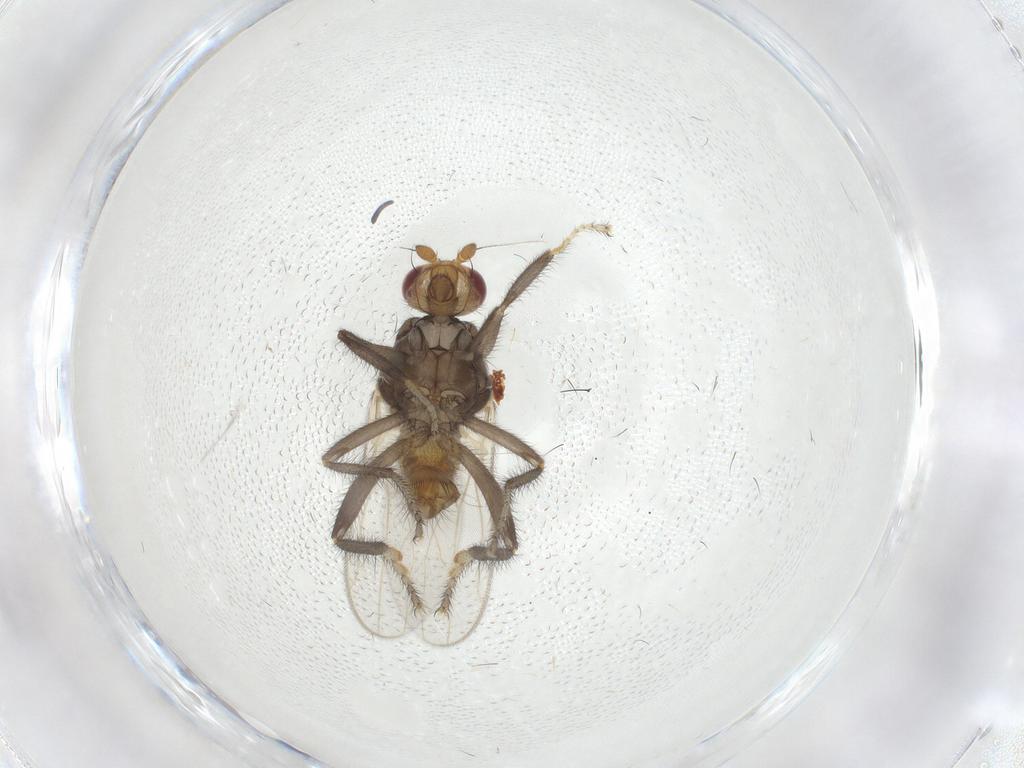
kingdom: Animalia
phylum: Arthropoda
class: Insecta
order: Diptera
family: Sphaeroceridae
